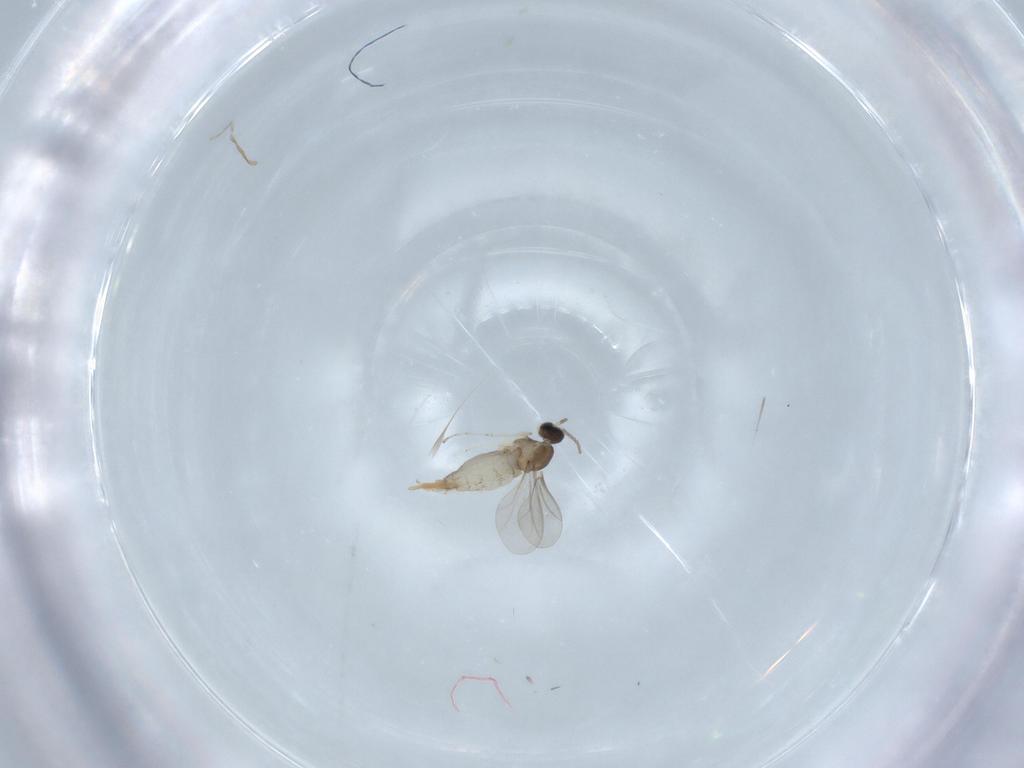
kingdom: Animalia
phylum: Arthropoda
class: Insecta
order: Diptera
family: Cecidomyiidae
